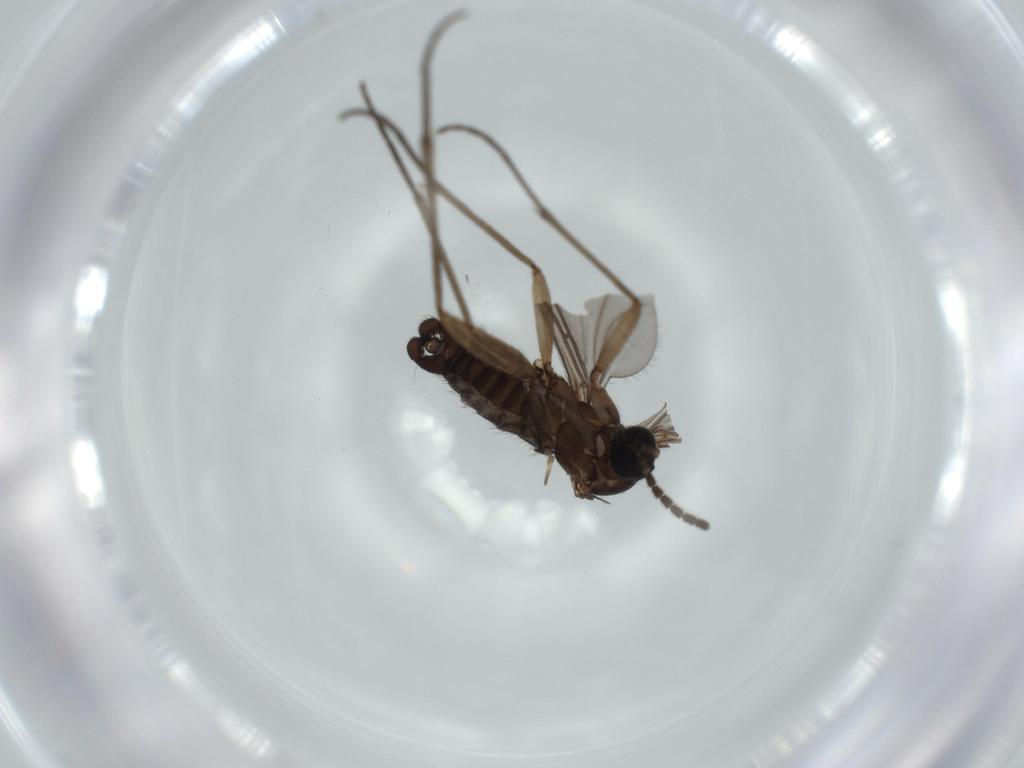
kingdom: Animalia
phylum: Arthropoda
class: Insecta
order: Diptera
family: Sciaridae
